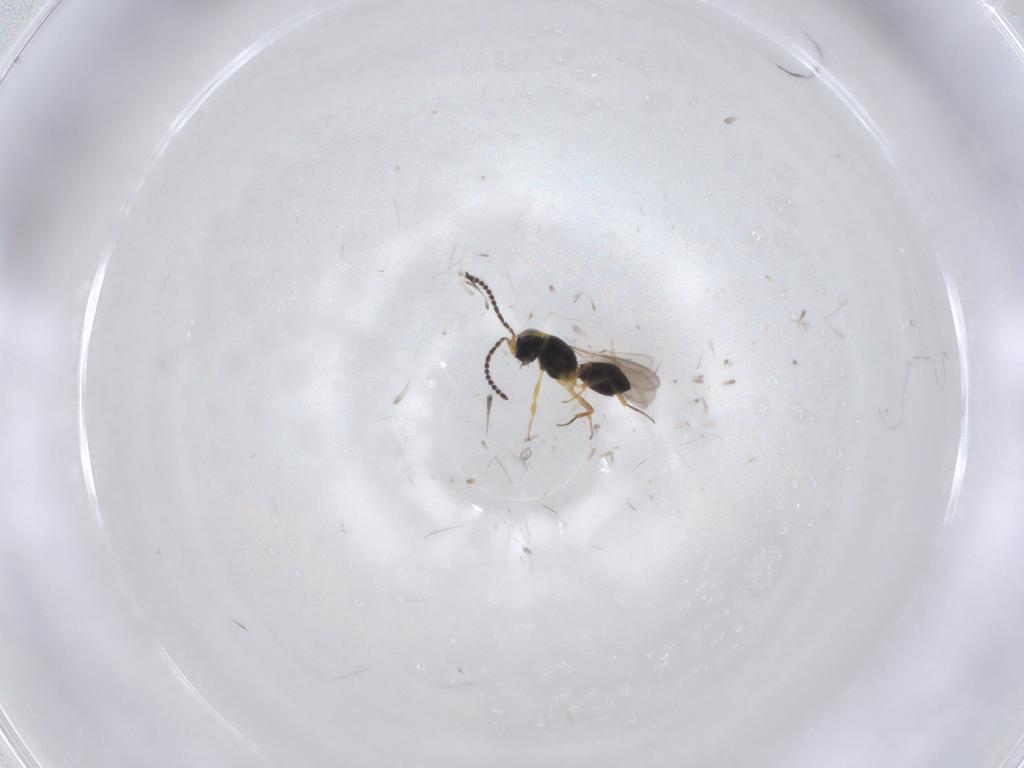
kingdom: Animalia
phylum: Arthropoda
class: Insecta
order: Hymenoptera
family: Scelionidae
